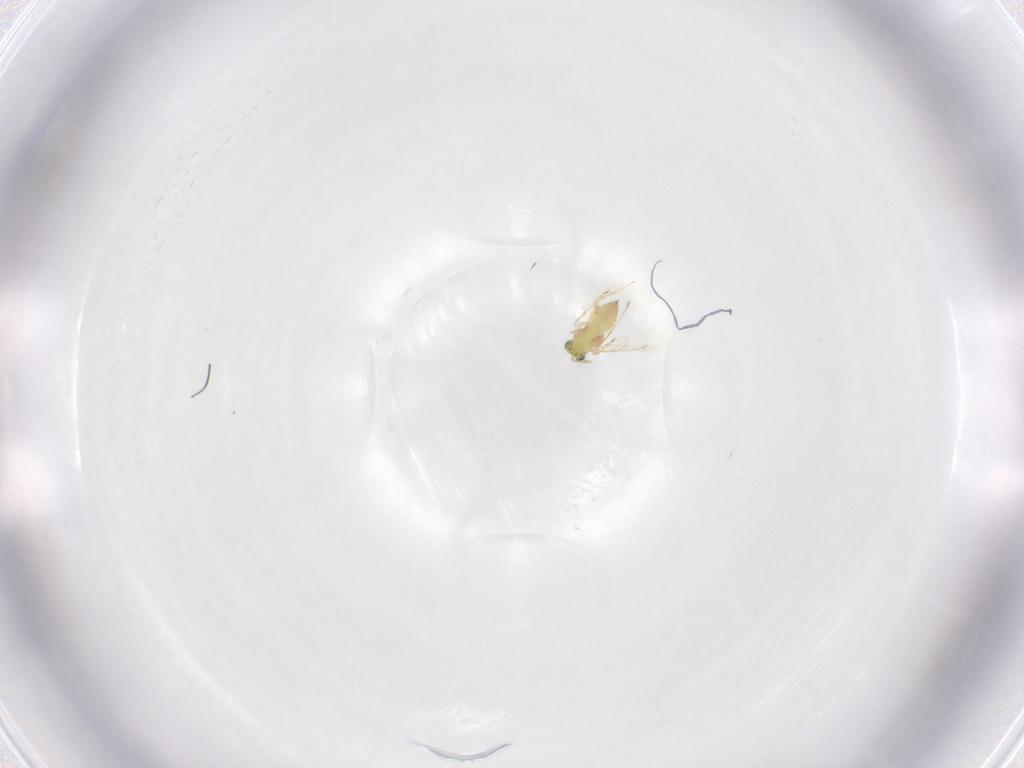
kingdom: Animalia
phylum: Arthropoda
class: Insecta
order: Hymenoptera
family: Trichogrammatidae
